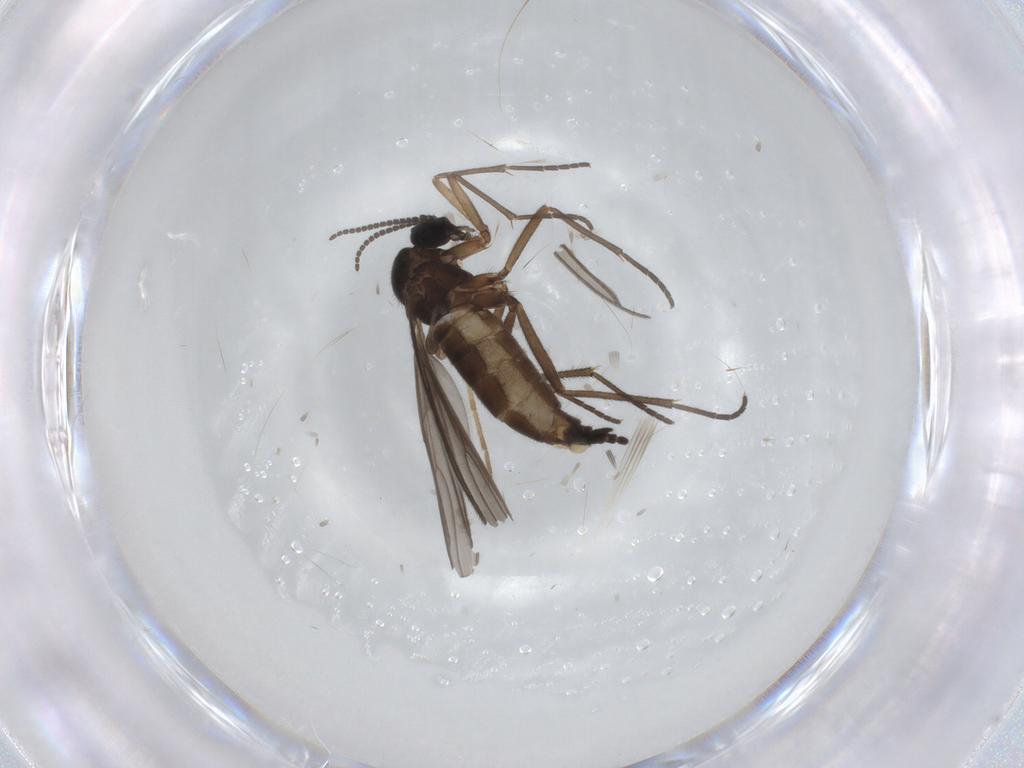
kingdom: Animalia
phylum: Arthropoda
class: Insecta
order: Diptera
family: Sciaridae
